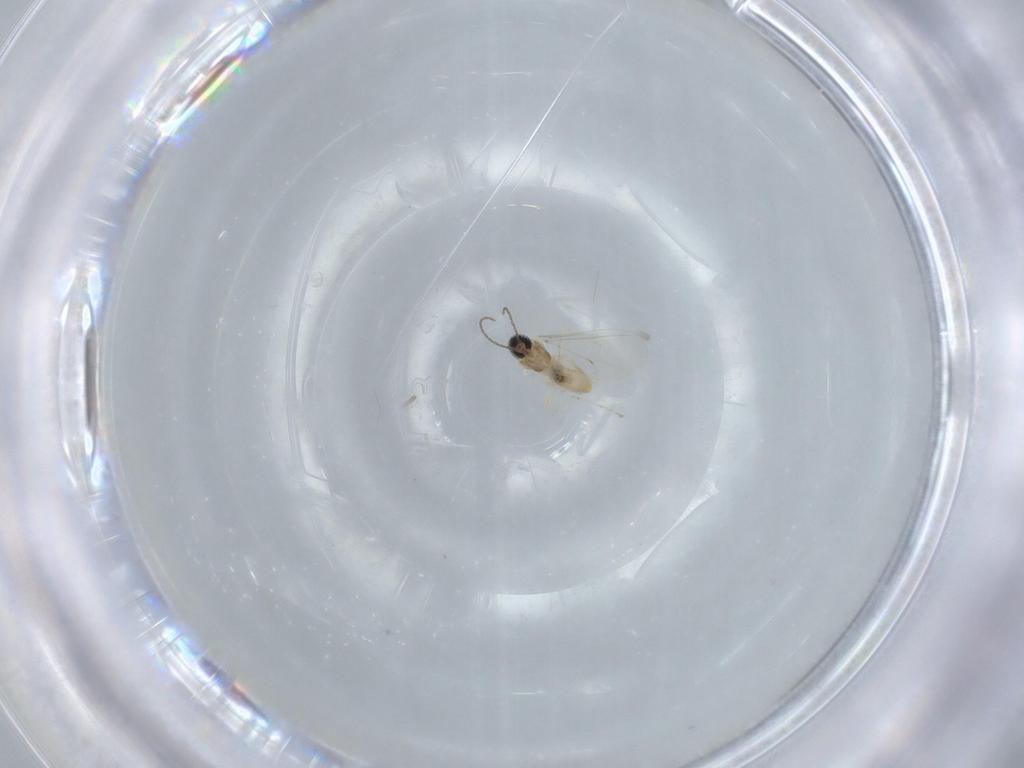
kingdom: Animalia
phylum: Arthropoda
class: Insecta
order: Diptera
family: Cecidomyiidae
